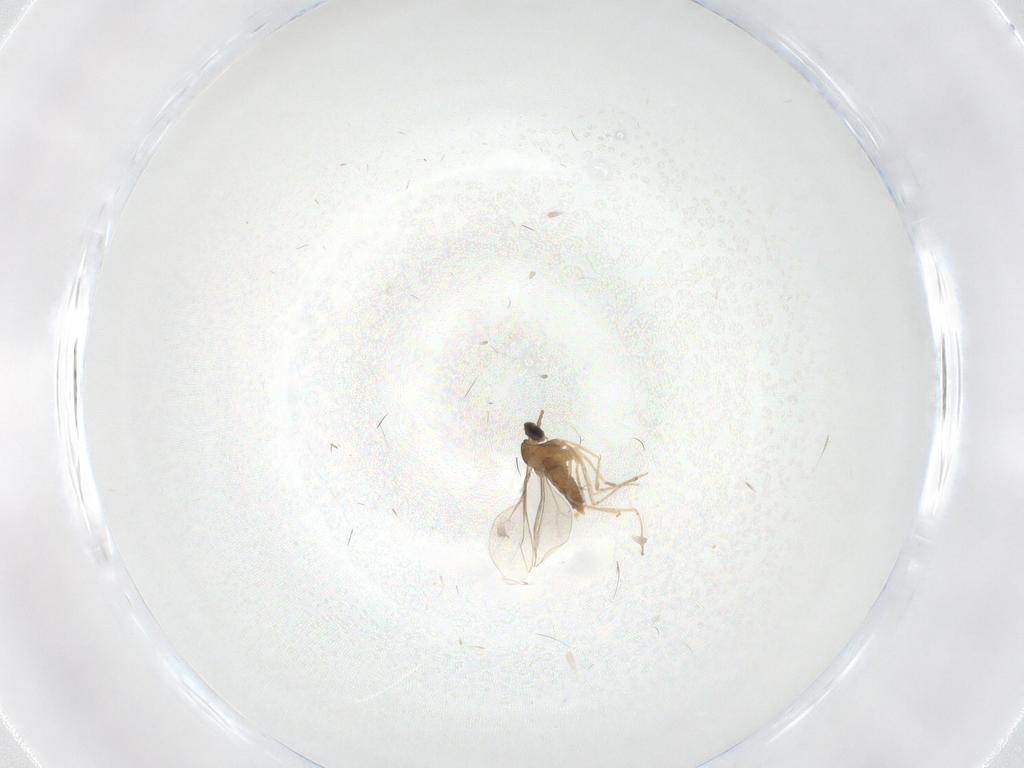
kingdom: Animalia
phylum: Arthropoda
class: Insecta
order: Diptera
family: Cecidomyiidae
